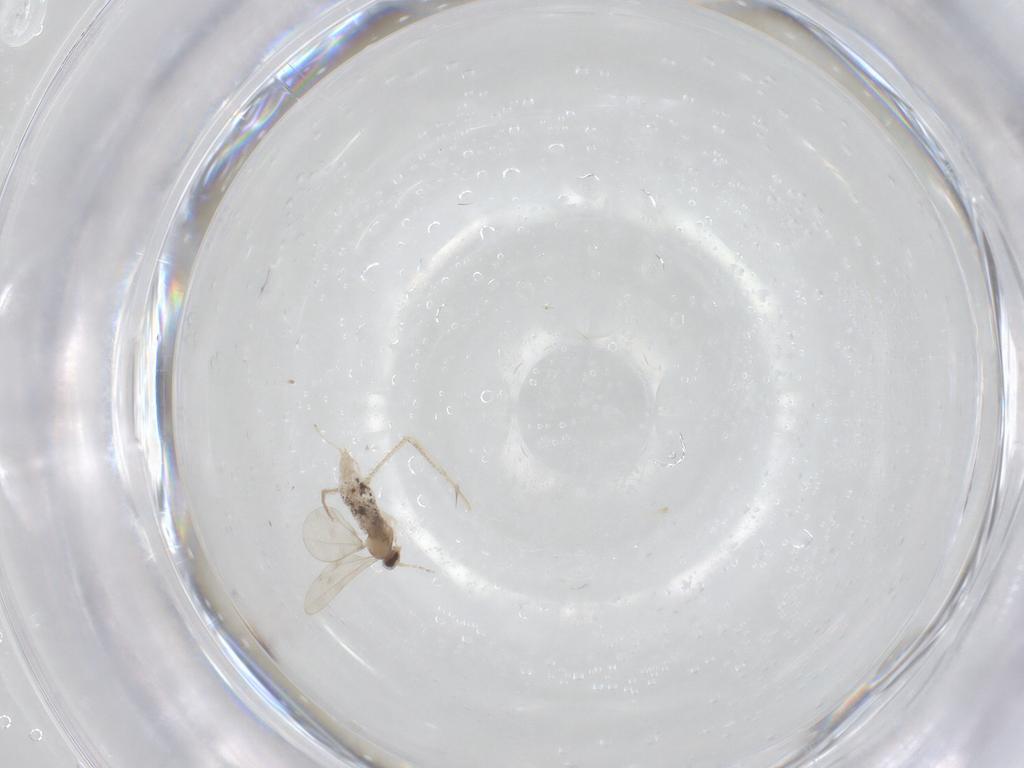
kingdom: Animalia
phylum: Arthropoda
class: Insecta
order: Diptera
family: Cecidomyiidae
